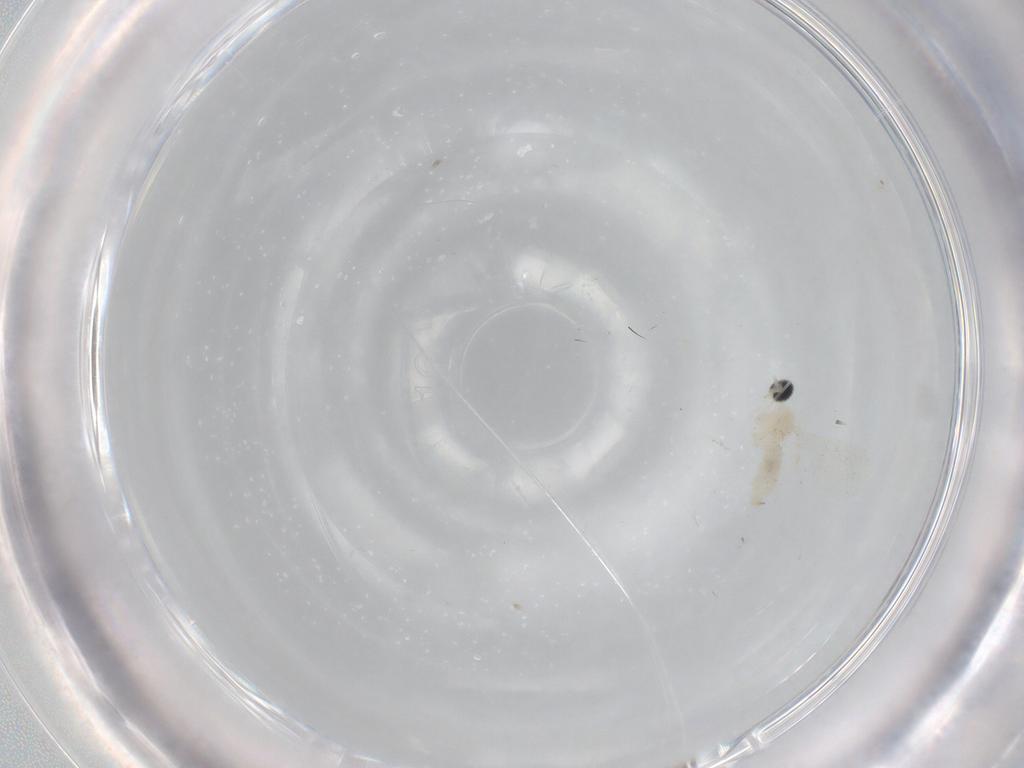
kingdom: Animalia
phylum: Arthropoda
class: Insecta
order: Diptera
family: Cecidomyiidae
